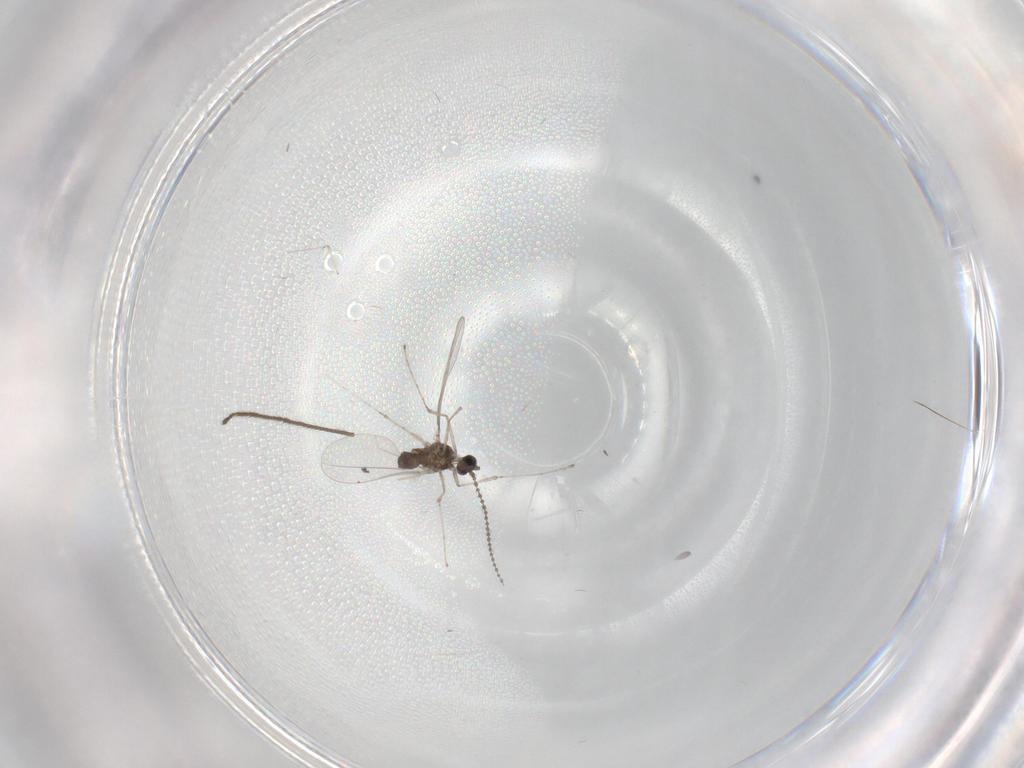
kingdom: Animalia
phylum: Arthropoda
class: Insecta
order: Diptera
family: Cecidomyiidae
